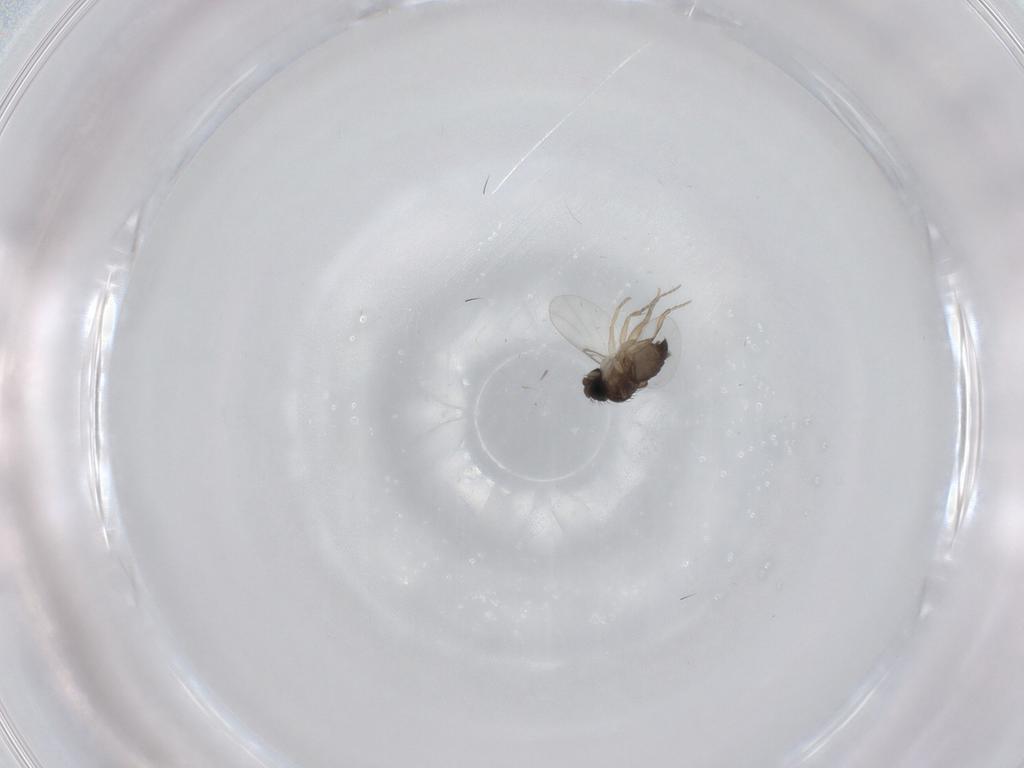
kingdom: Animalia
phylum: Arthropoda
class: Insecta
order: Diptera
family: Phoridae
